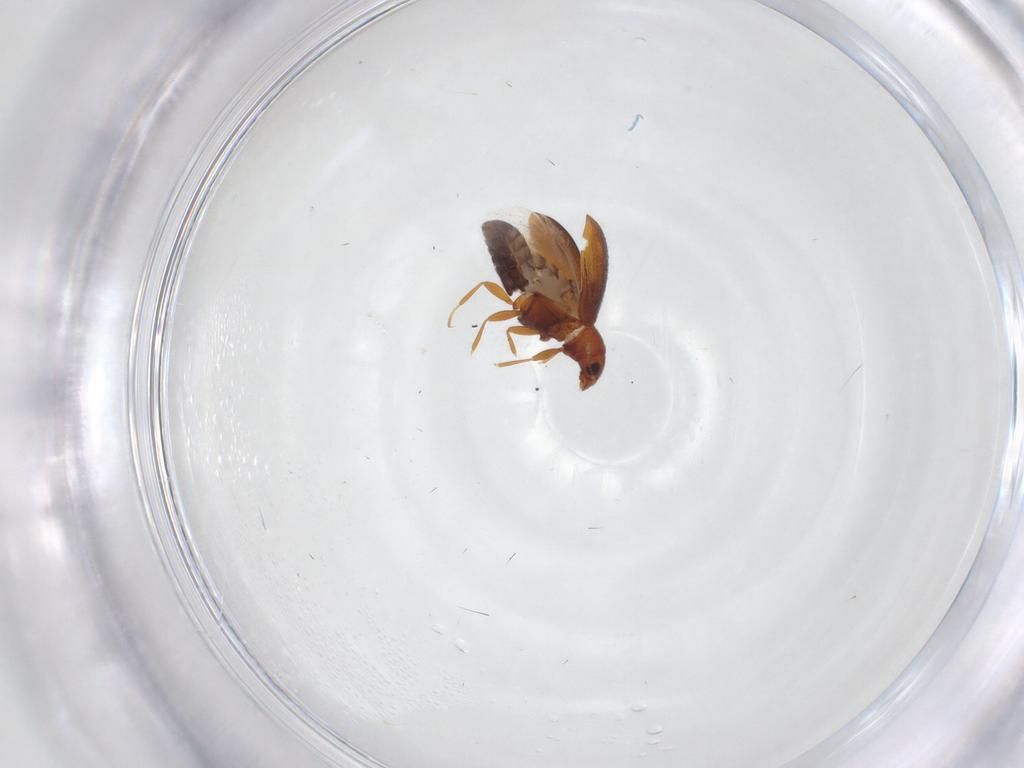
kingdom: Animalia
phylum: Arthropoda
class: Insecta
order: Coleoptera
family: Latridiidae
